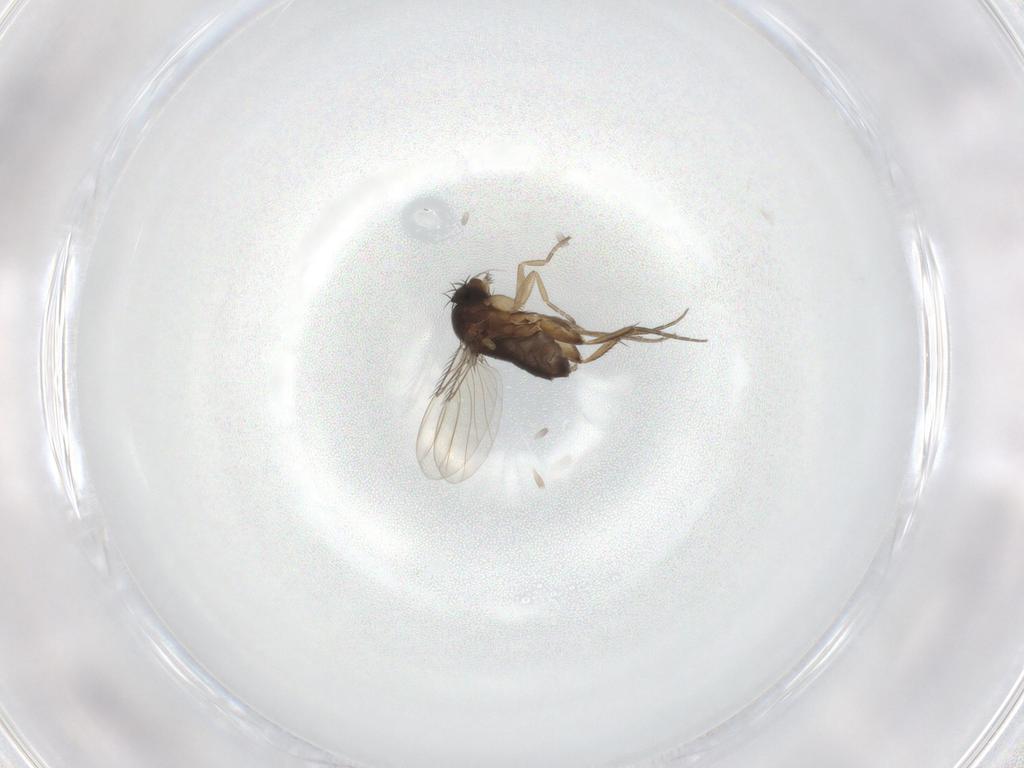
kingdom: Animalia
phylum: Arthropoda
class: Insecta
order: Diptera
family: Phoridae
